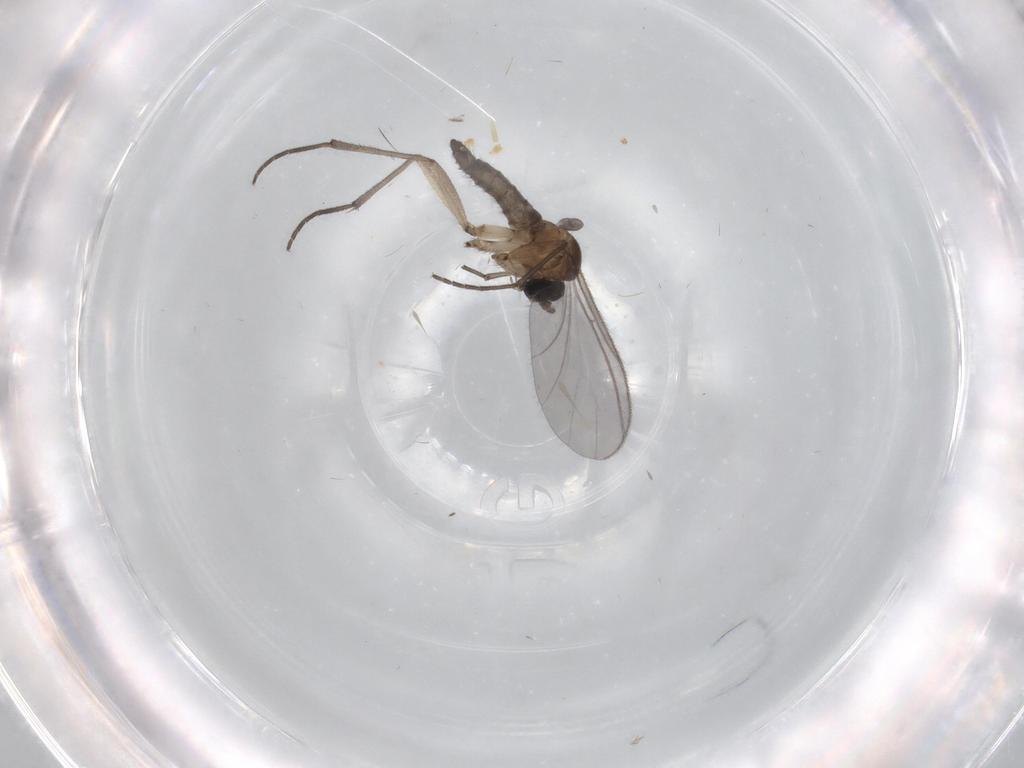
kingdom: Animalia
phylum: Arthropoda
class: Insecta
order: Diptera
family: Sciaridae
